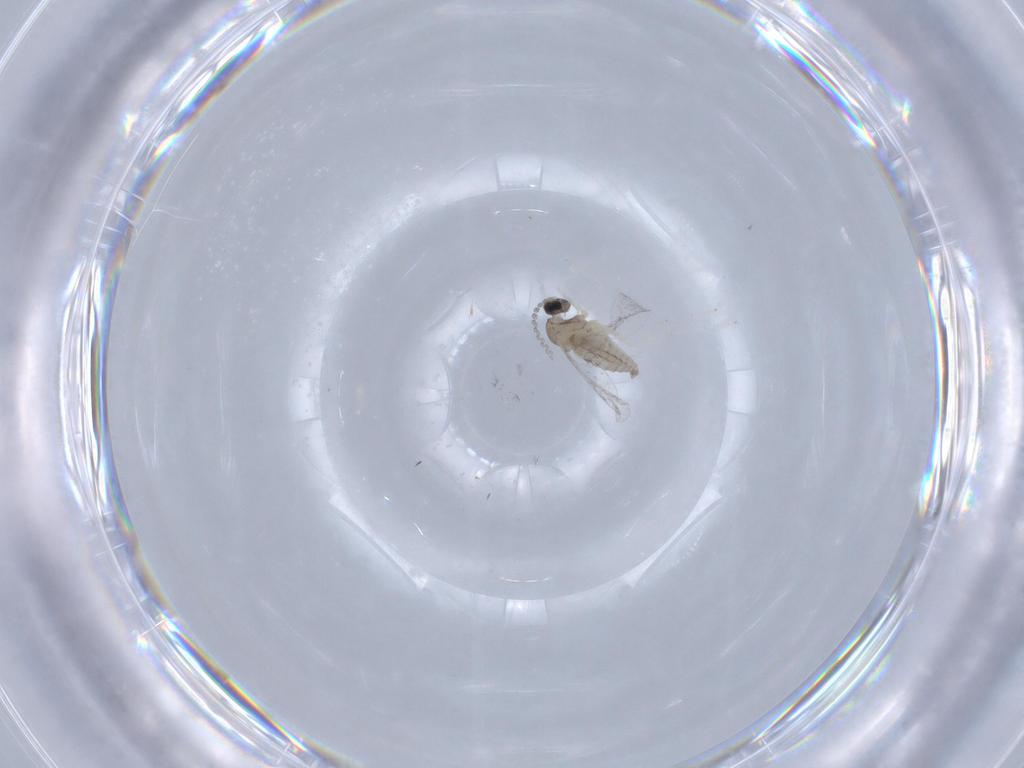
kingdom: Animalia
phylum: Arthropoda
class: Insecta
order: Diptera
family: Cecidomyiidae
